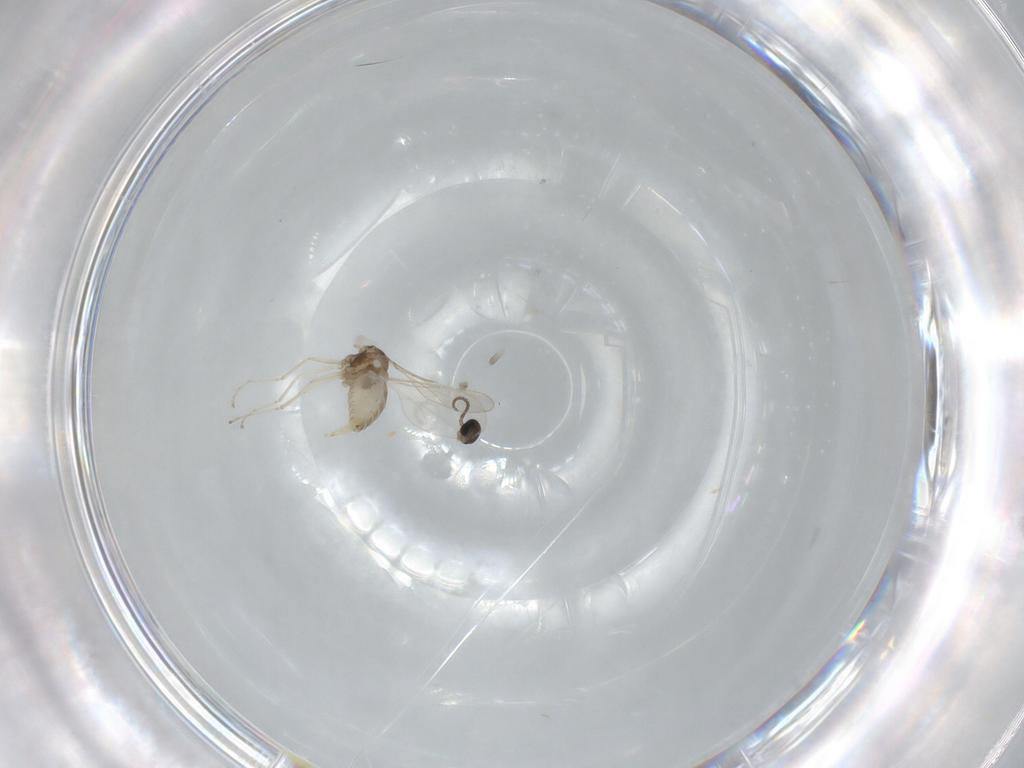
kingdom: Animalia
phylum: Arthropoda
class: Insecta
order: Diptera
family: Cecidomyiidae
